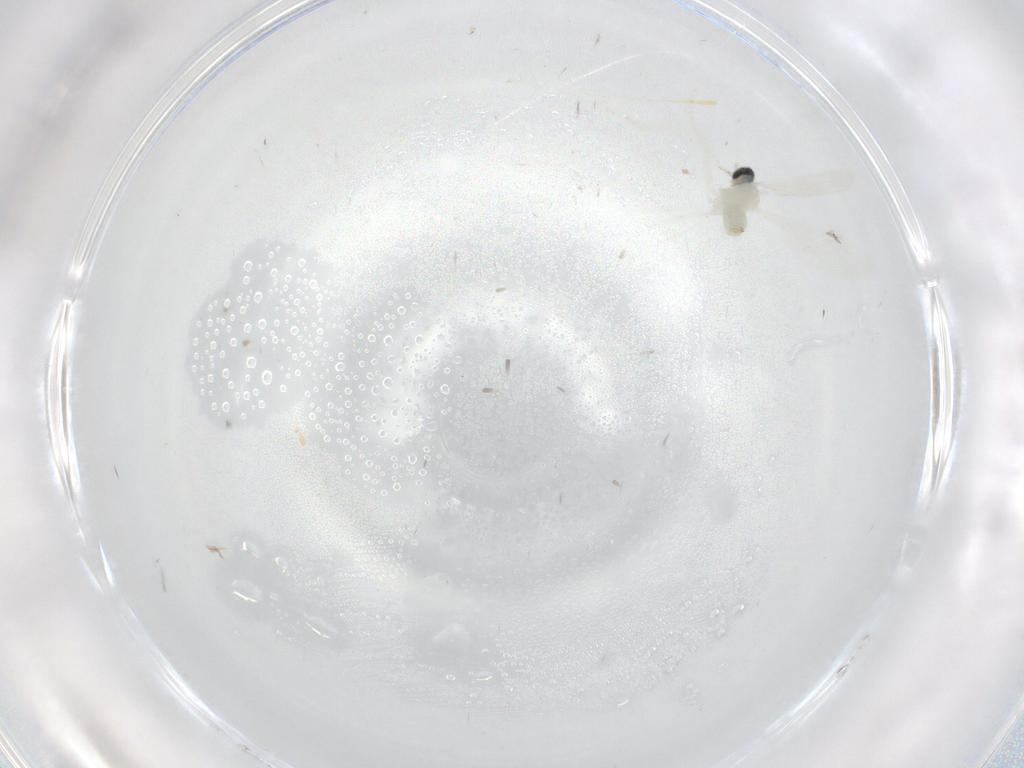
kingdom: Animalia
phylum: Arthropoda
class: Insecta
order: Diptera
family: Cecidomyiidae
